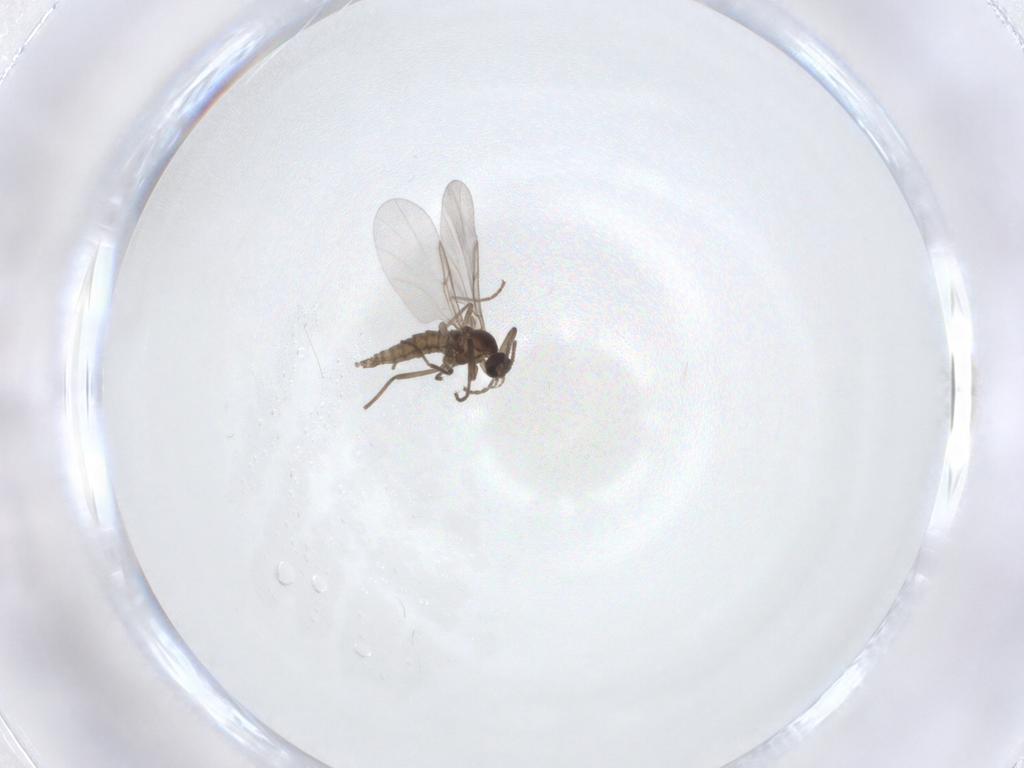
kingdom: Animalia
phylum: Arthropoda
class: Insecta
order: Diptera
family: Cecidomyiidae
